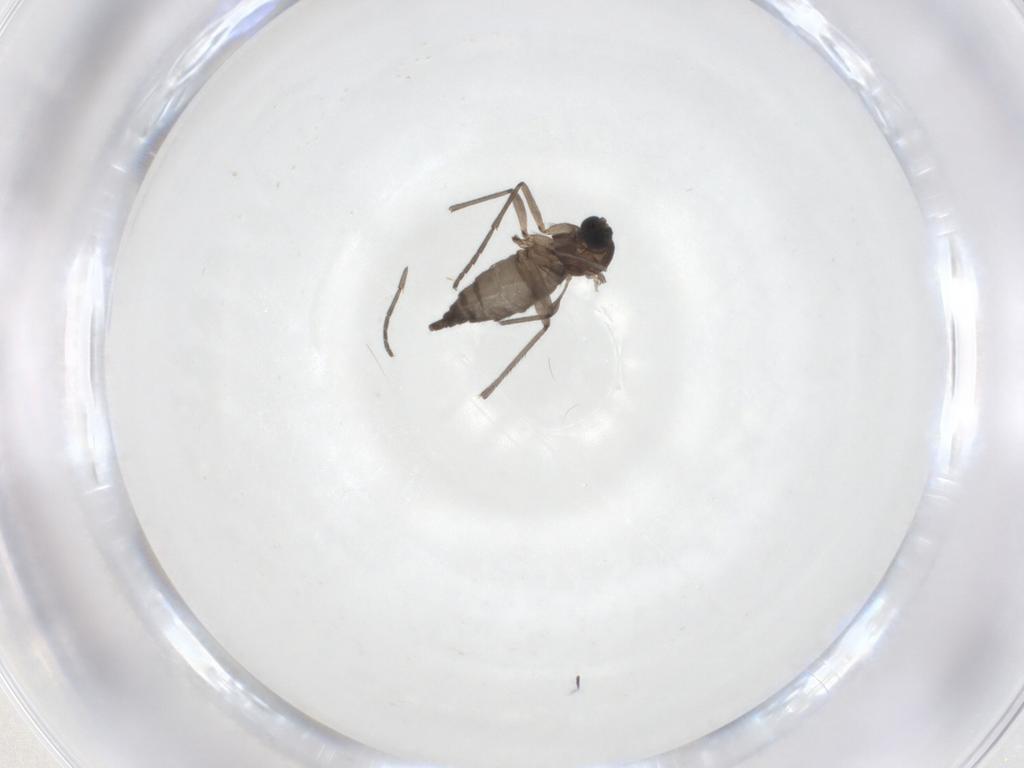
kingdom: Animalia
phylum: Arthropoda
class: Insecta
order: Diptera
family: Sciaridae
